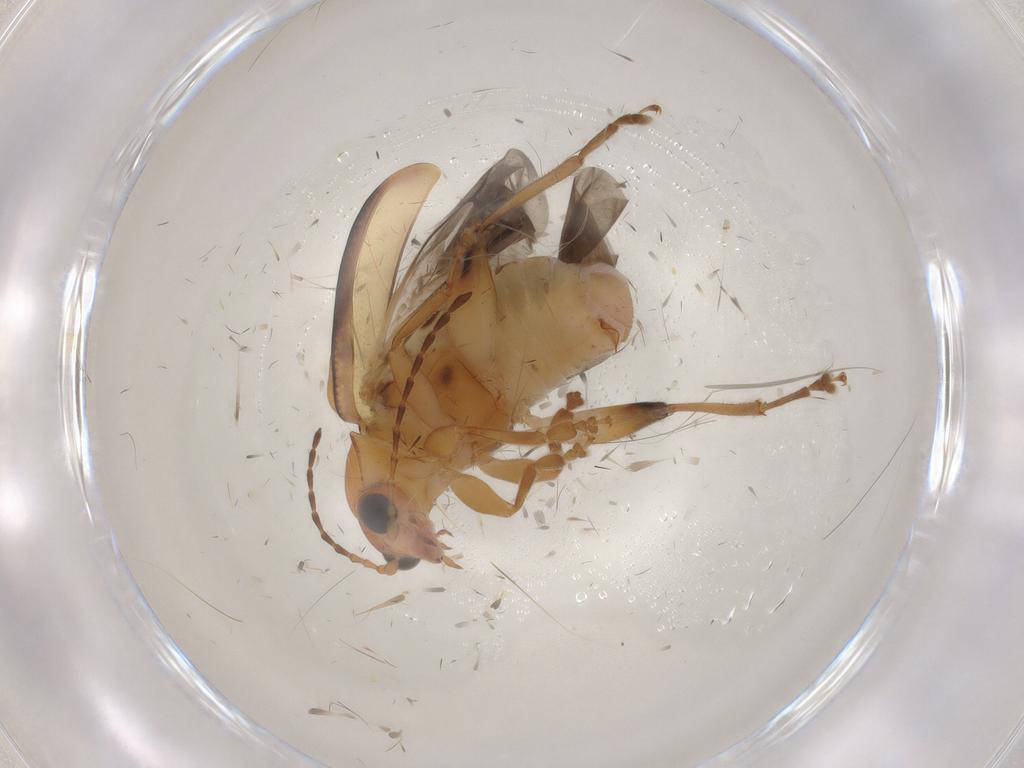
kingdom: Animalia
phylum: Arthropoda
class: Insecta
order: Coleoptera
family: Chrysomelidae
